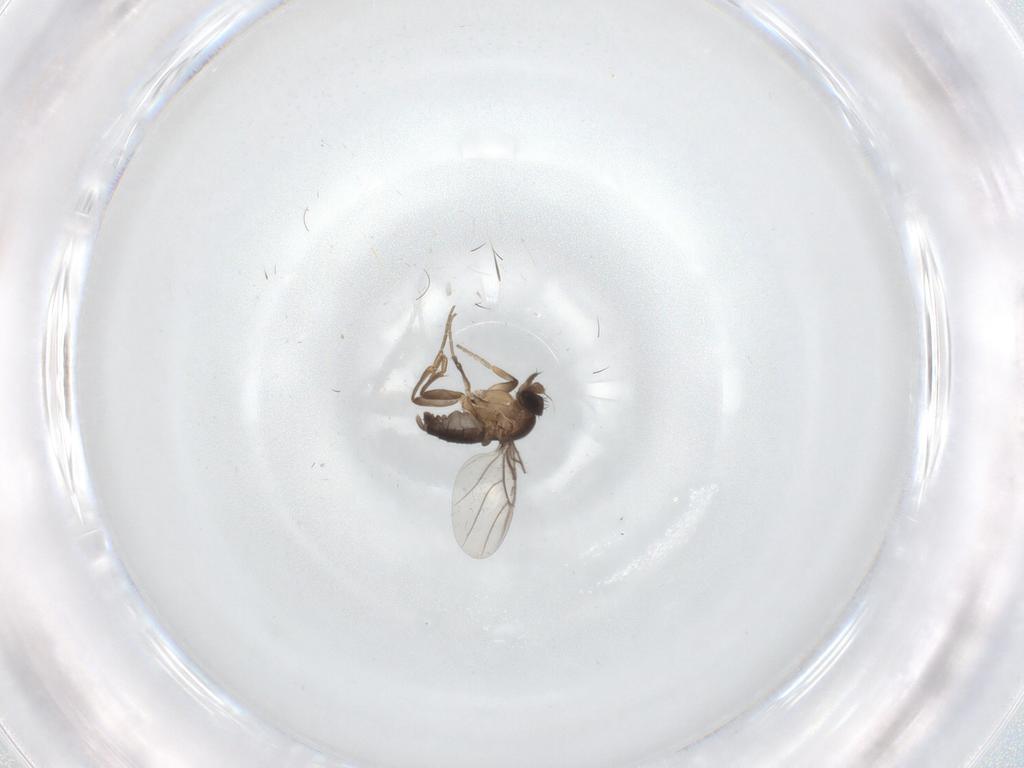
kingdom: Animalia
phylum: Arthropoda
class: Insecta
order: Diptera
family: Phoridae
